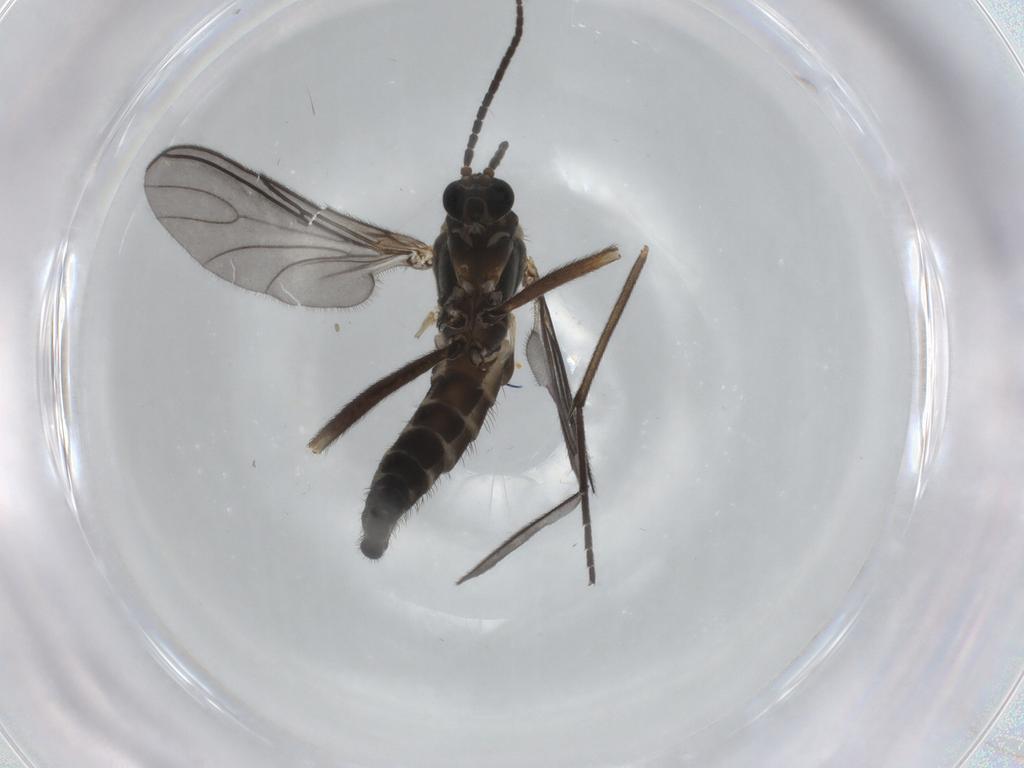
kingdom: Animalia
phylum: Arthropoda
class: Insecta
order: Diptera
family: Sciaridae
